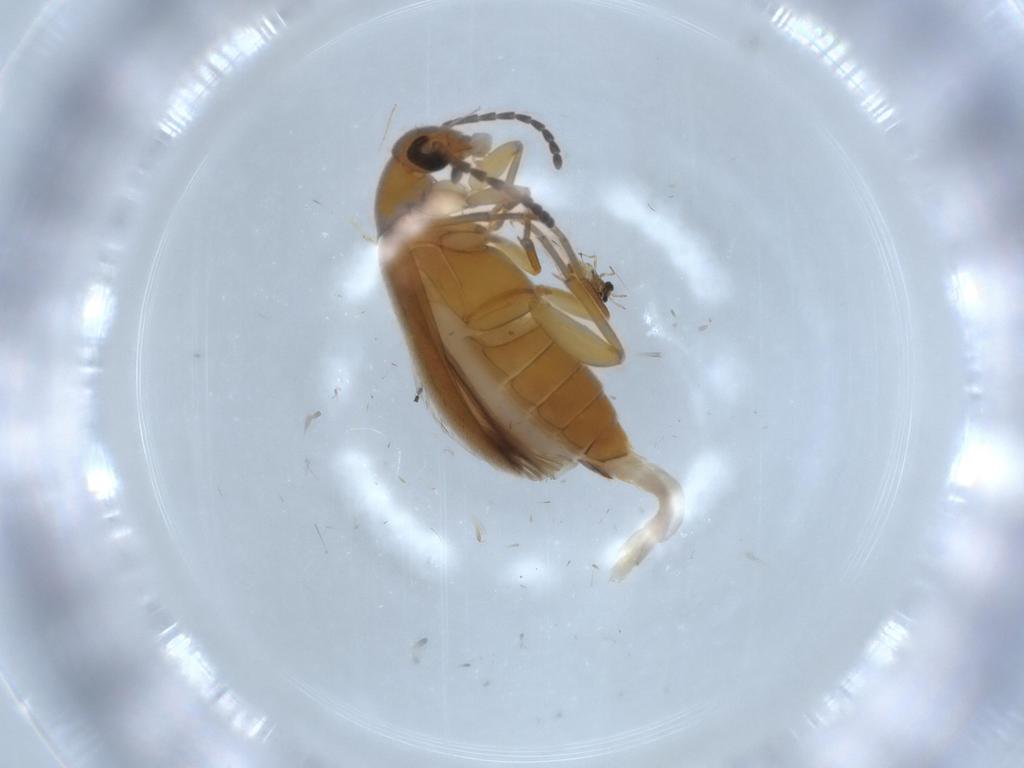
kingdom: Animalia
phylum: Arthropoda
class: Insecta
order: Coleoptera
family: Scraptiidae
